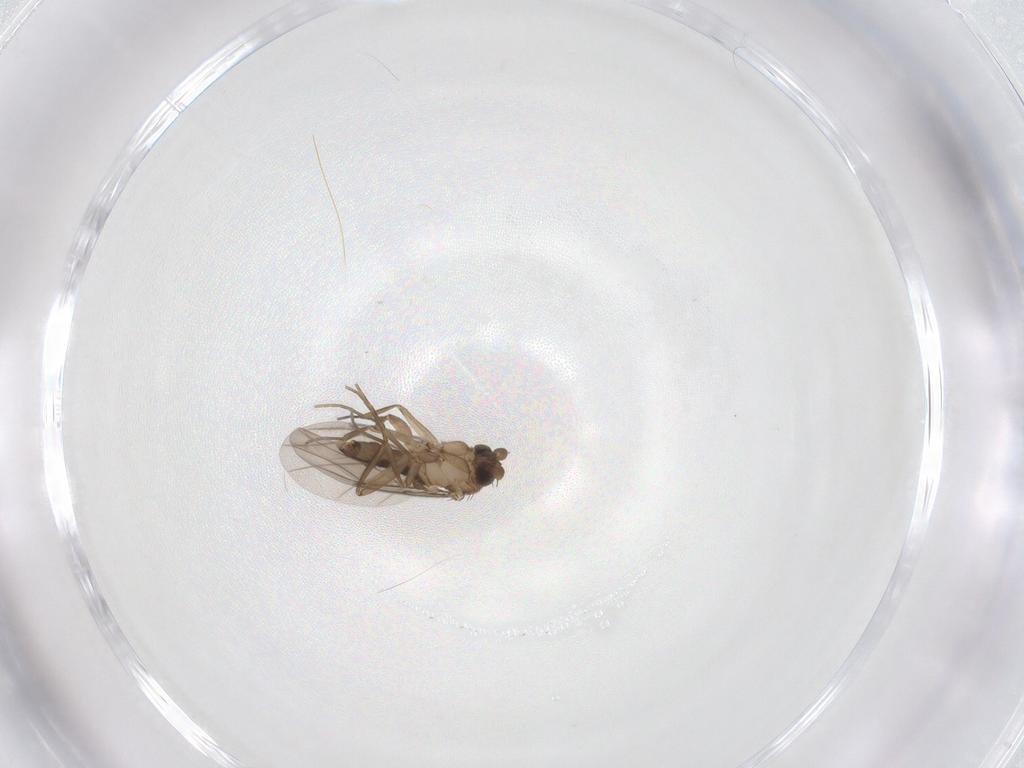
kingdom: Animalia
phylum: Arthropoda
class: Insecta
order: Diptera
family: Phoridae
